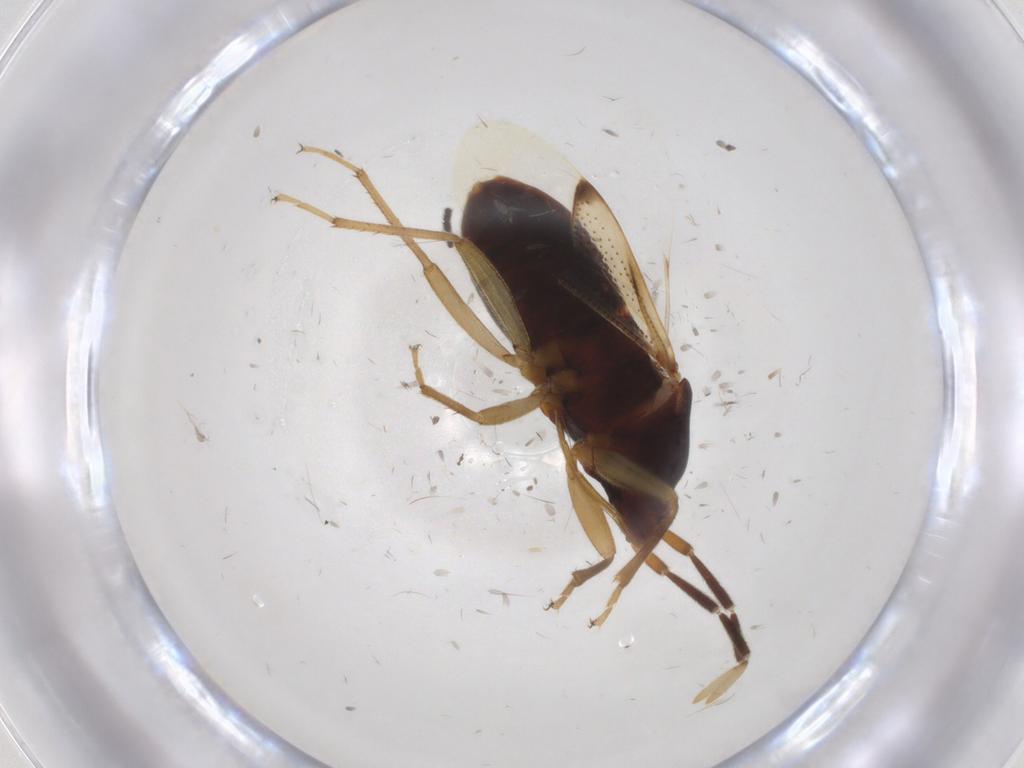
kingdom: Animalia
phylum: Arthropoda
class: Insecta
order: Hemiptera
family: Rhyparochromidae
